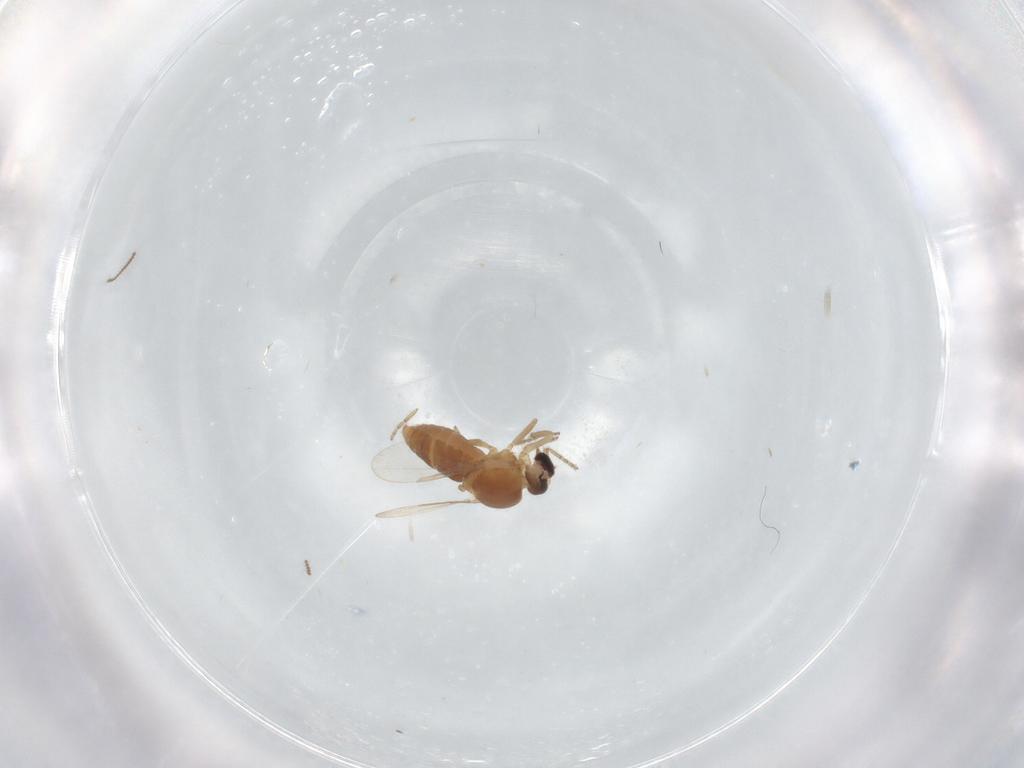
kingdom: Animalia
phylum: Arthropoda
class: Insecta
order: Diptera
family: Ceratopogonidae
